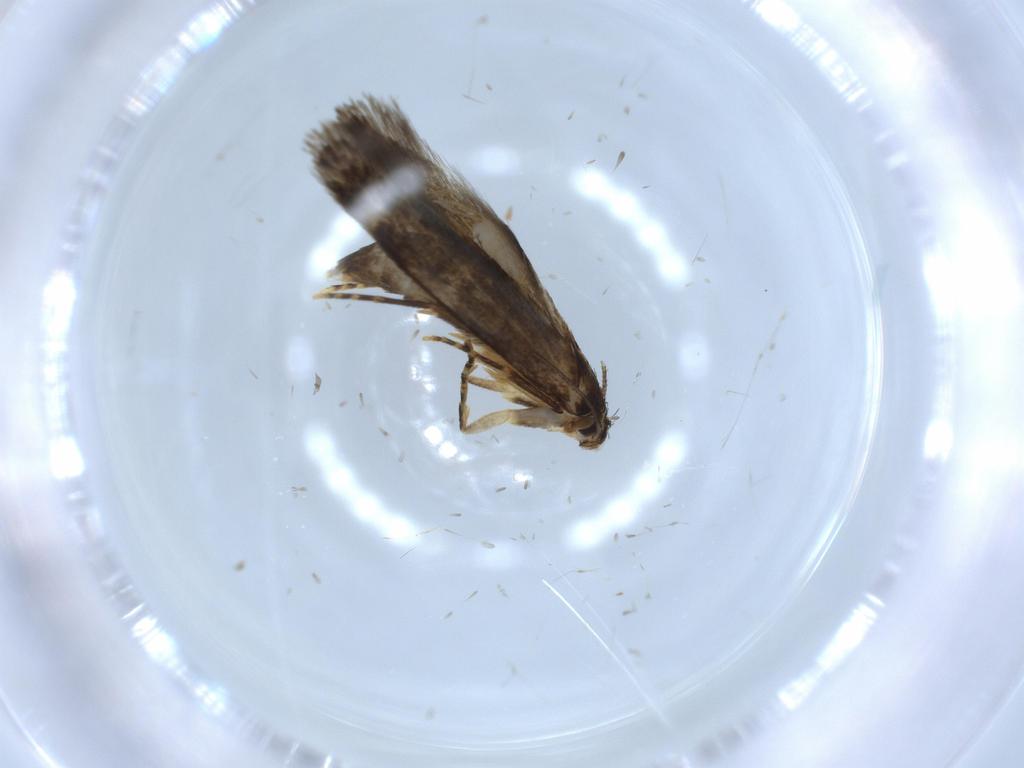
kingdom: Animalia
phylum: Arthropoda
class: Insecta
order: Lepidoptera
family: Tineidae
